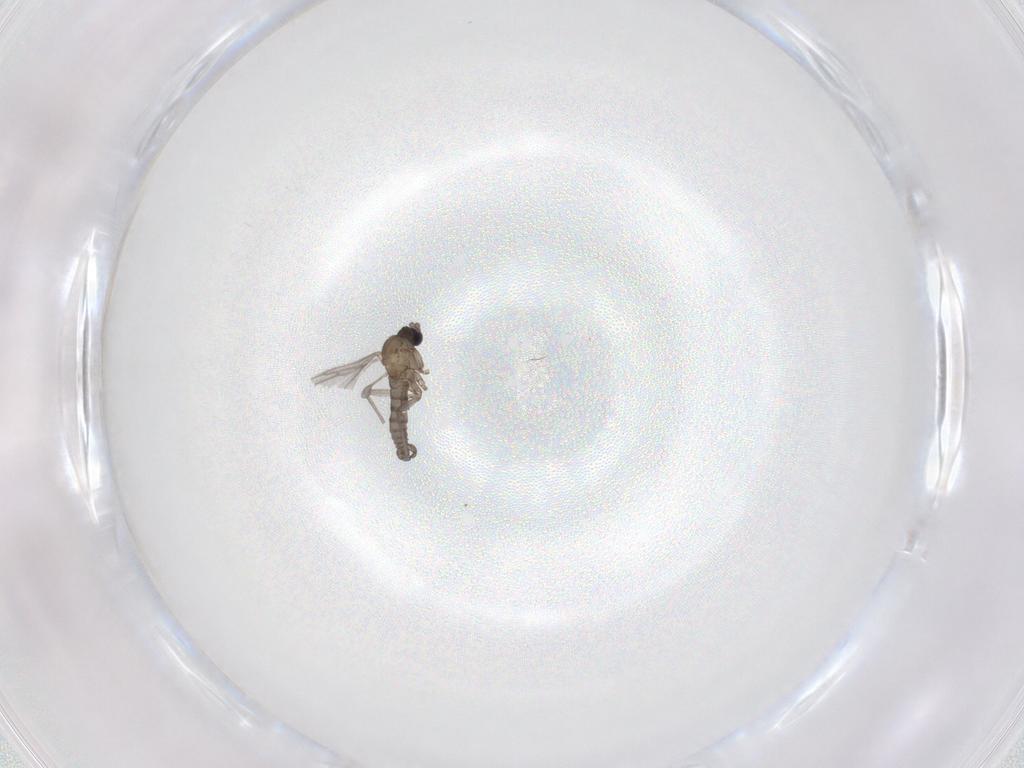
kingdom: Animalia
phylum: Arthropoda
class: Insecta
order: Diptera
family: Sciaridae
